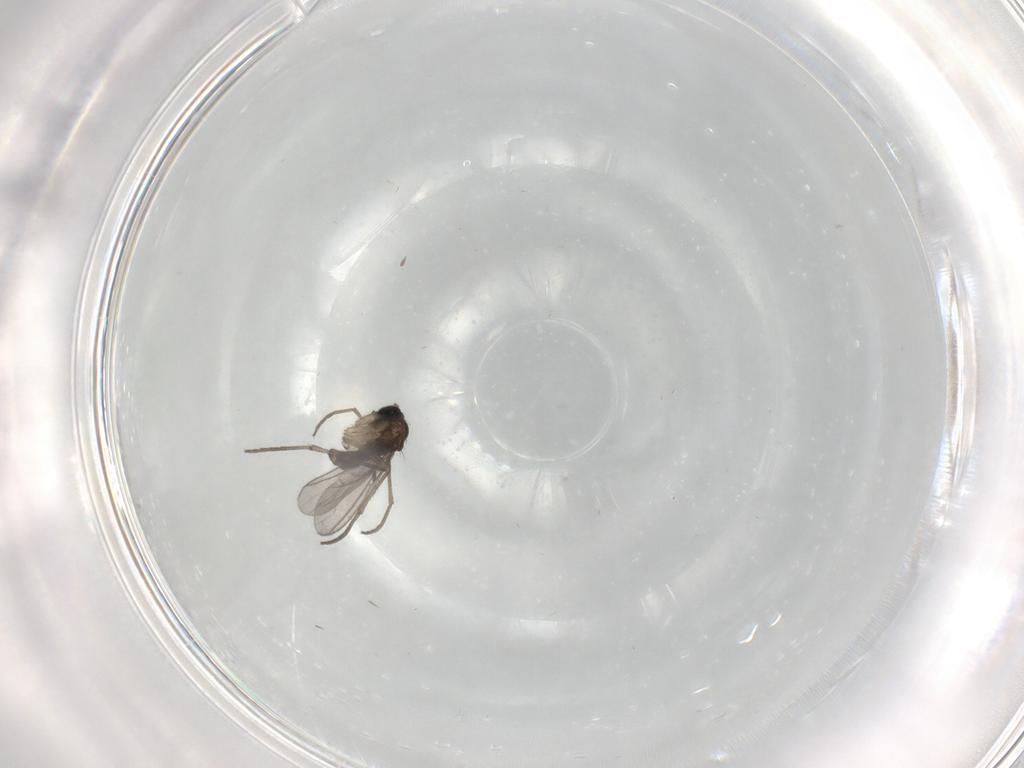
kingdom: Animalia
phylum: Arthropoda
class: Insecta
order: Diptera
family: Sciaridae
